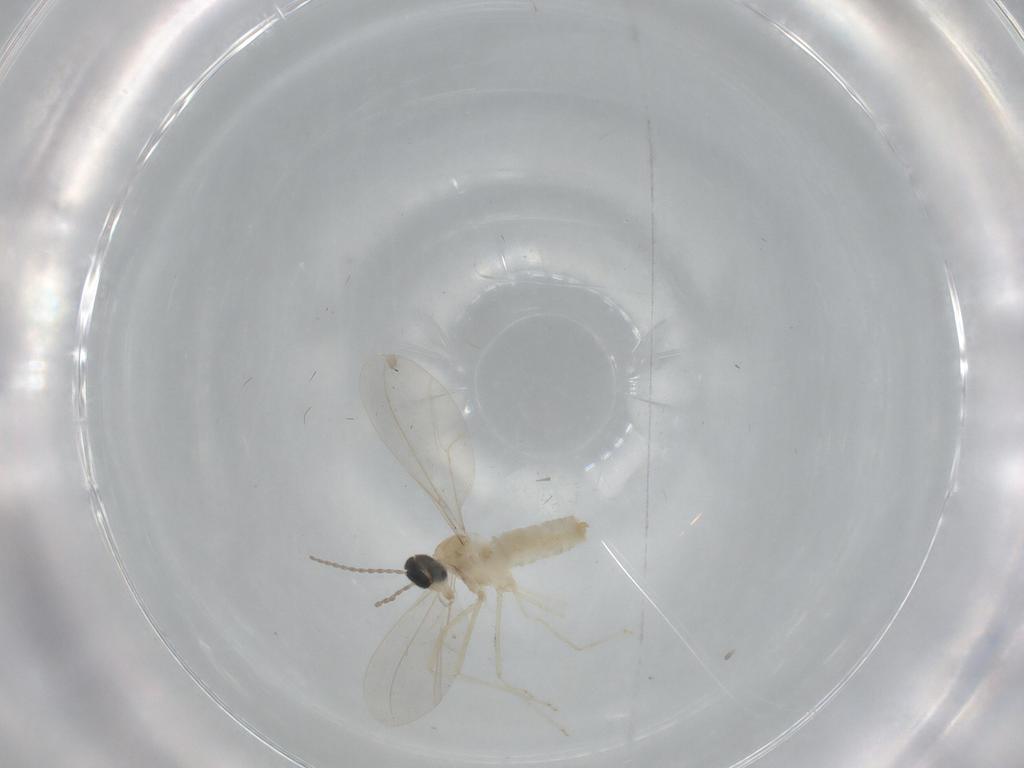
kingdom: Animalia
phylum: Arthropoda
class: Insecta
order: Diptera
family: Cecidomyiidae
